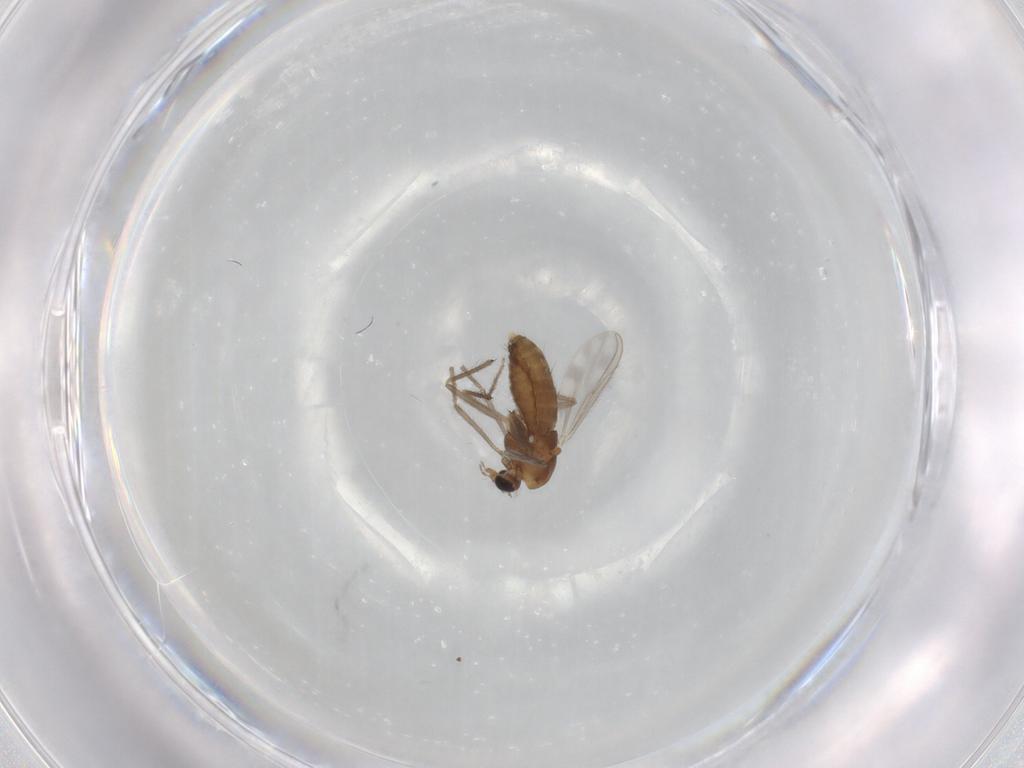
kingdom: Animalia
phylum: Arthropoda
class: Insecta
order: Diptera
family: Chironomidae
